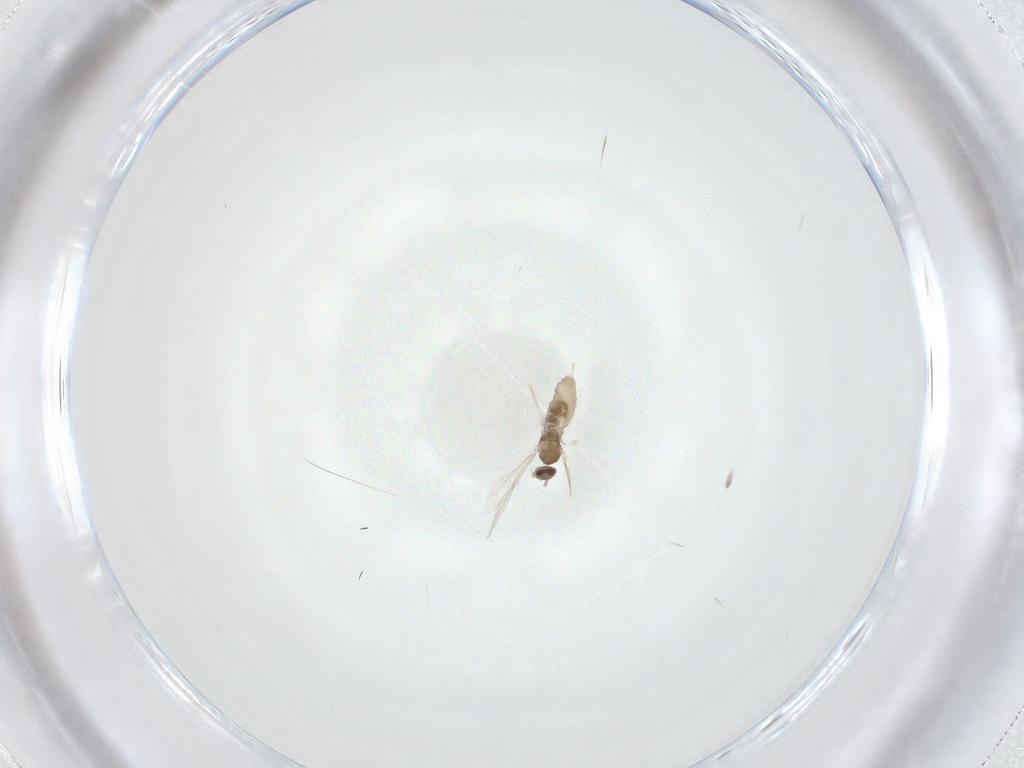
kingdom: Animalia
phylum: Arthropoda
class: Insecta
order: Diptera
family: Cecidomyiidae
